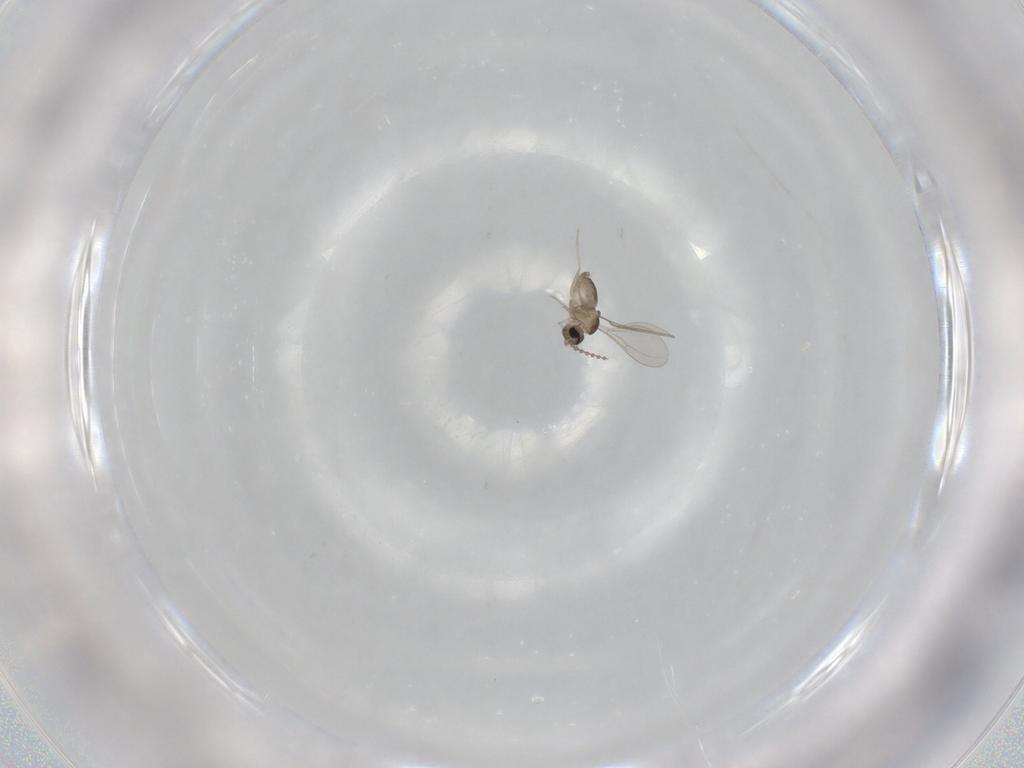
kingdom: Animalia
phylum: Arthropoda
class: Insecta
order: Diptera
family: Cecidomyiidae
